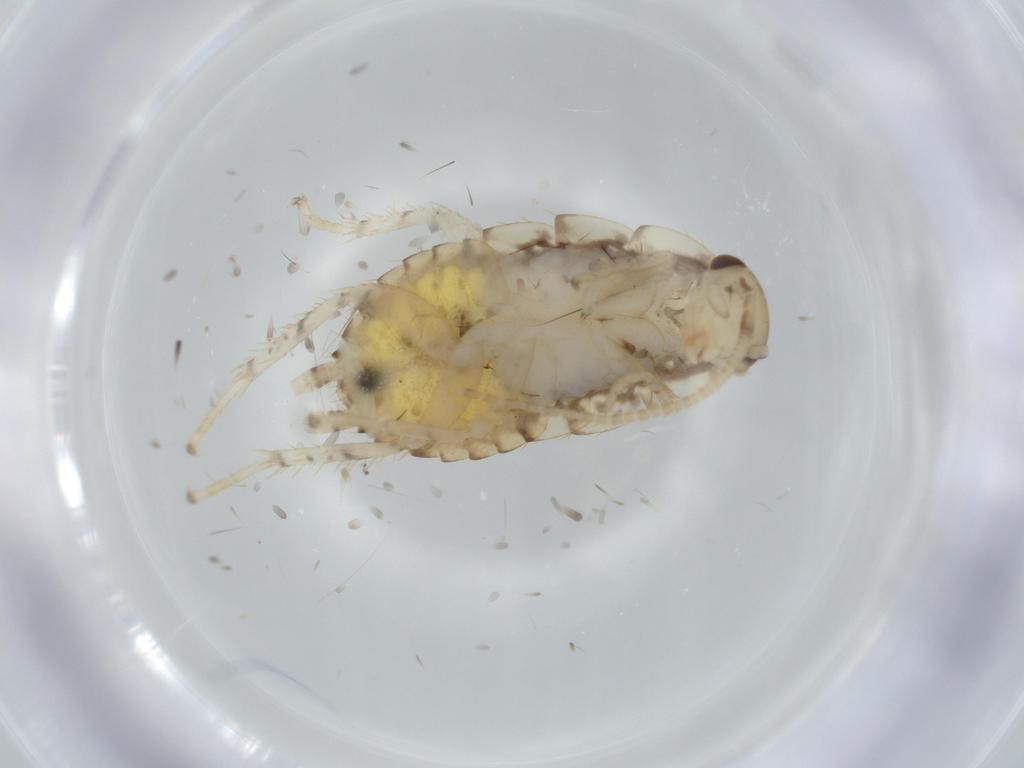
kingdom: Animalia
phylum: Arthropoda
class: Insecta
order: Blattodea
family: Ectobiidae
